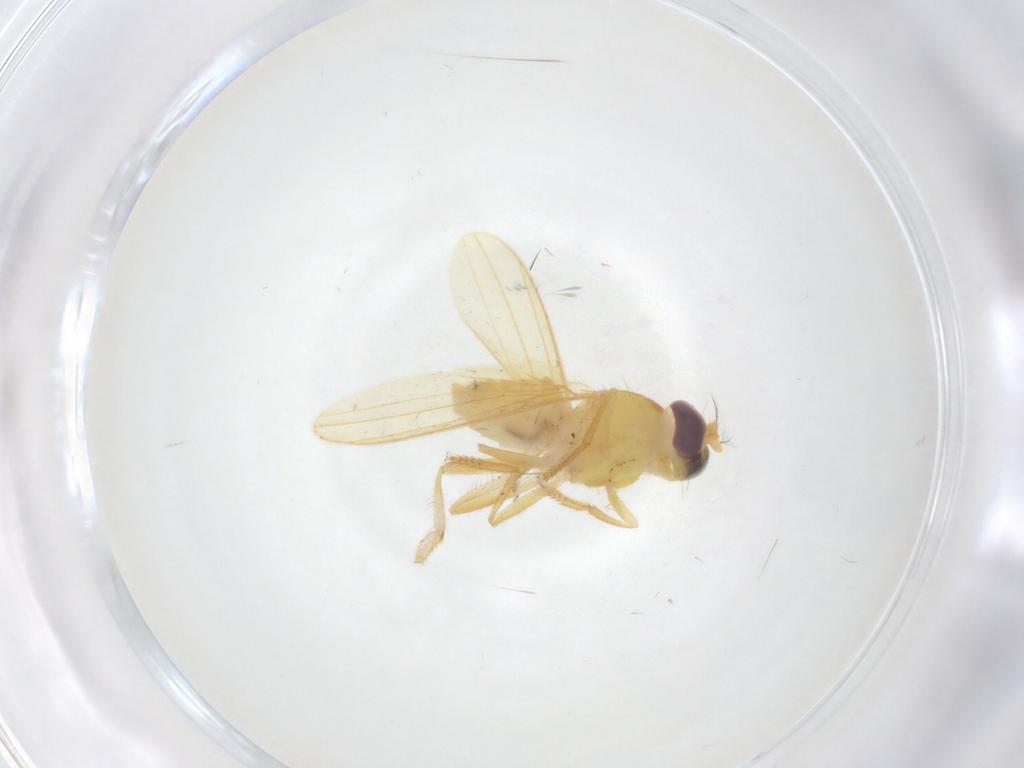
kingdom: Animalia
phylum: Arthropoda
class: Insecta
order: Diptera
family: Periscelididae
